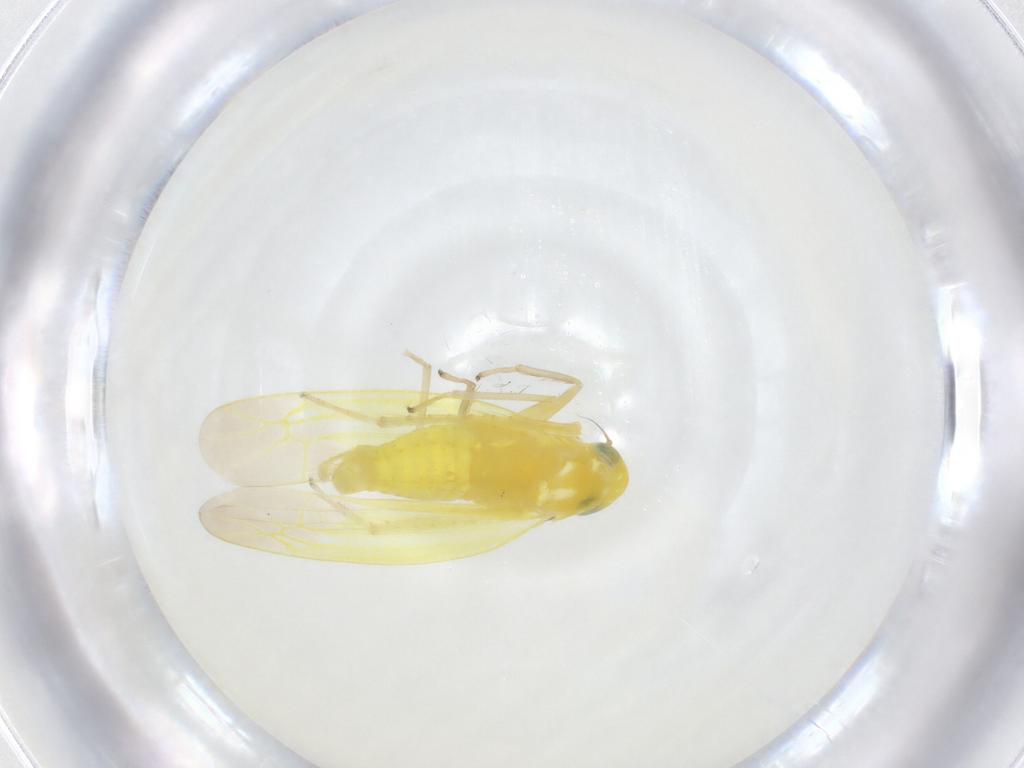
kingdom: Animalia
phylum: Arthropoda
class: Insecta
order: Hemiptera
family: Cicadellidae
